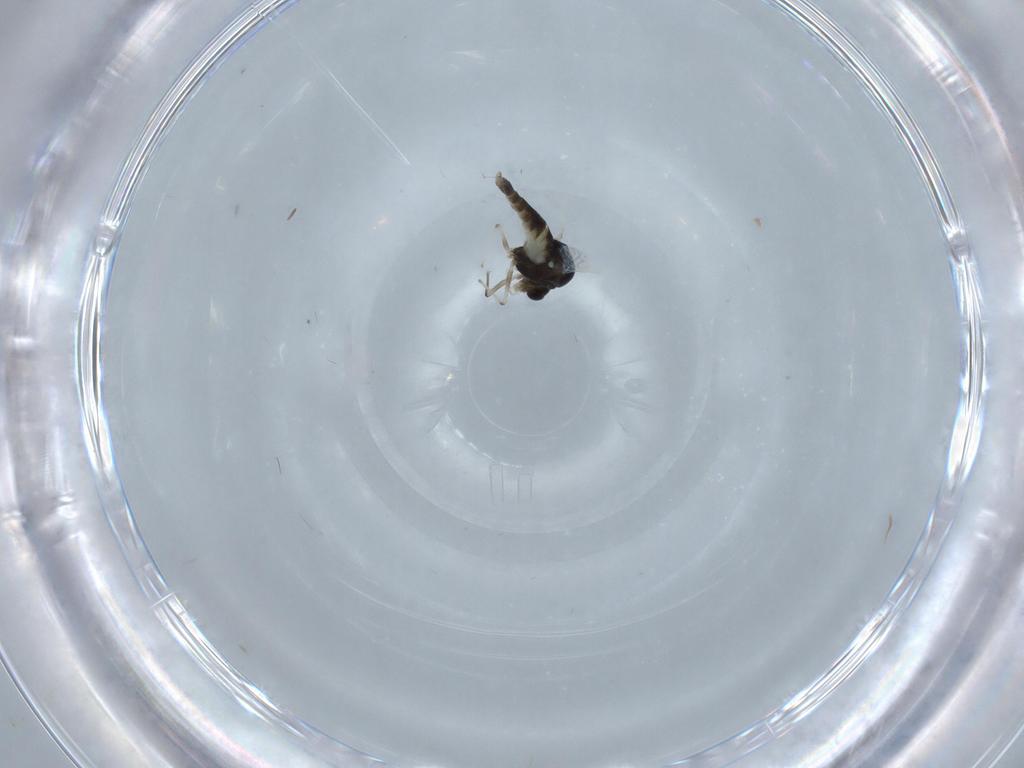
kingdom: Animalia
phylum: Arthropoda
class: Insecta
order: Diptera
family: Chironomidae
